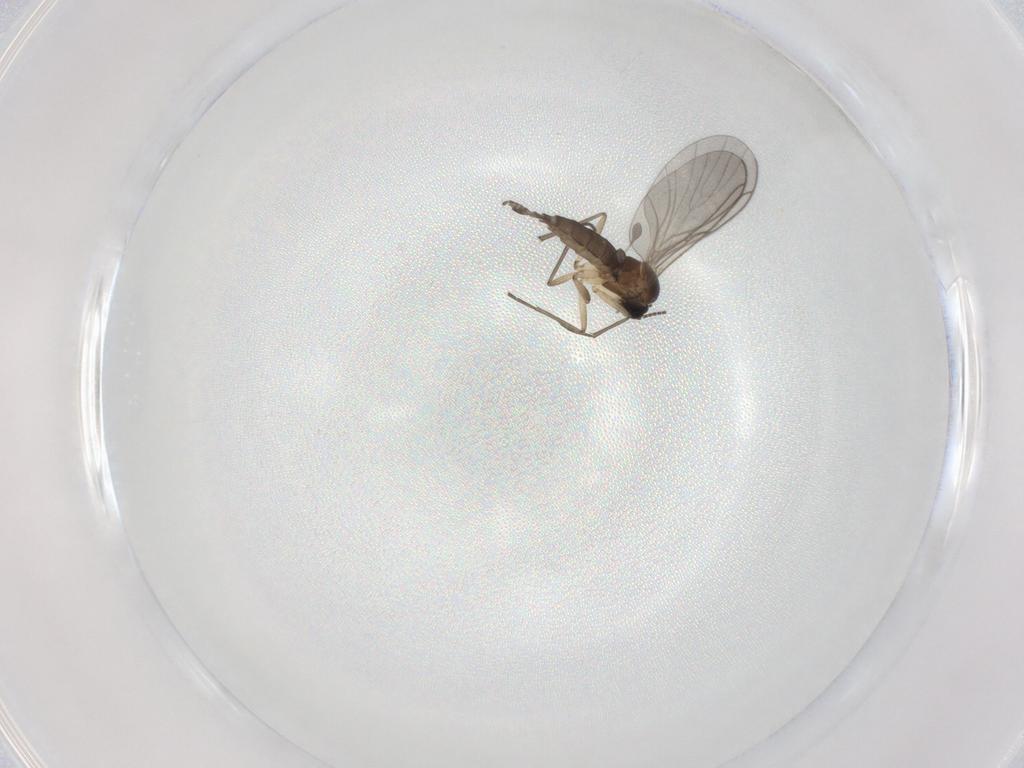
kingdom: Animalia
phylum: Arthropoda
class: Insecta
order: Diptera
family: Sciaridae
